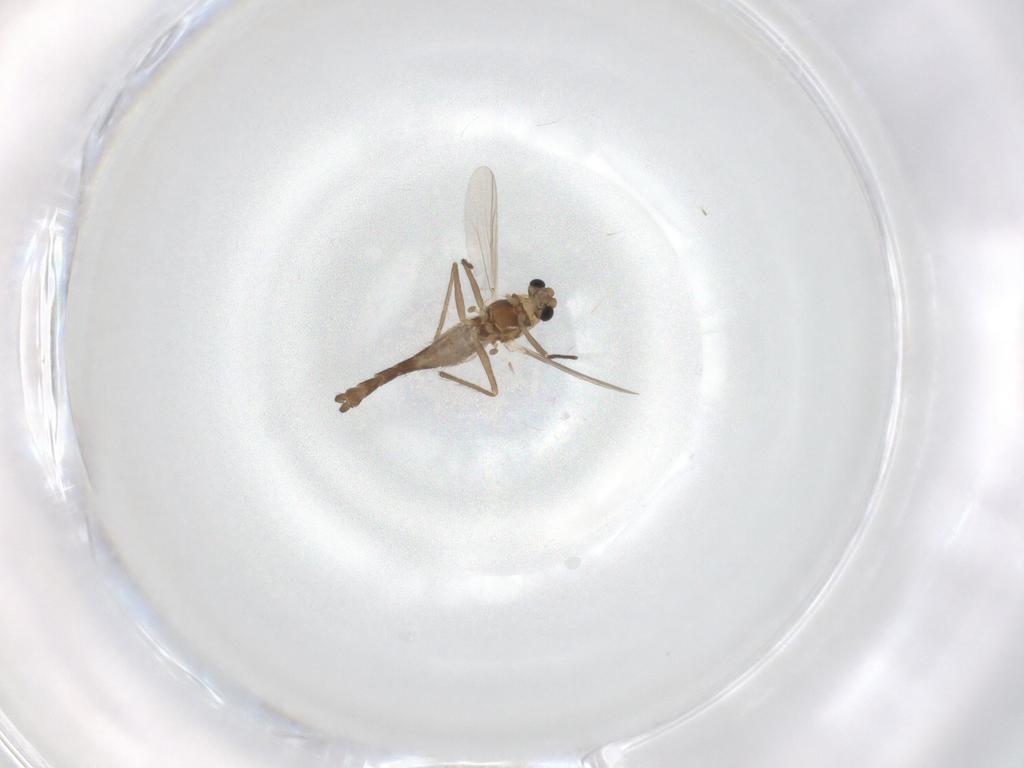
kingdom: Animalia
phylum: Arthropoda
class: Insecta
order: Diptera
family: Chironomidae
